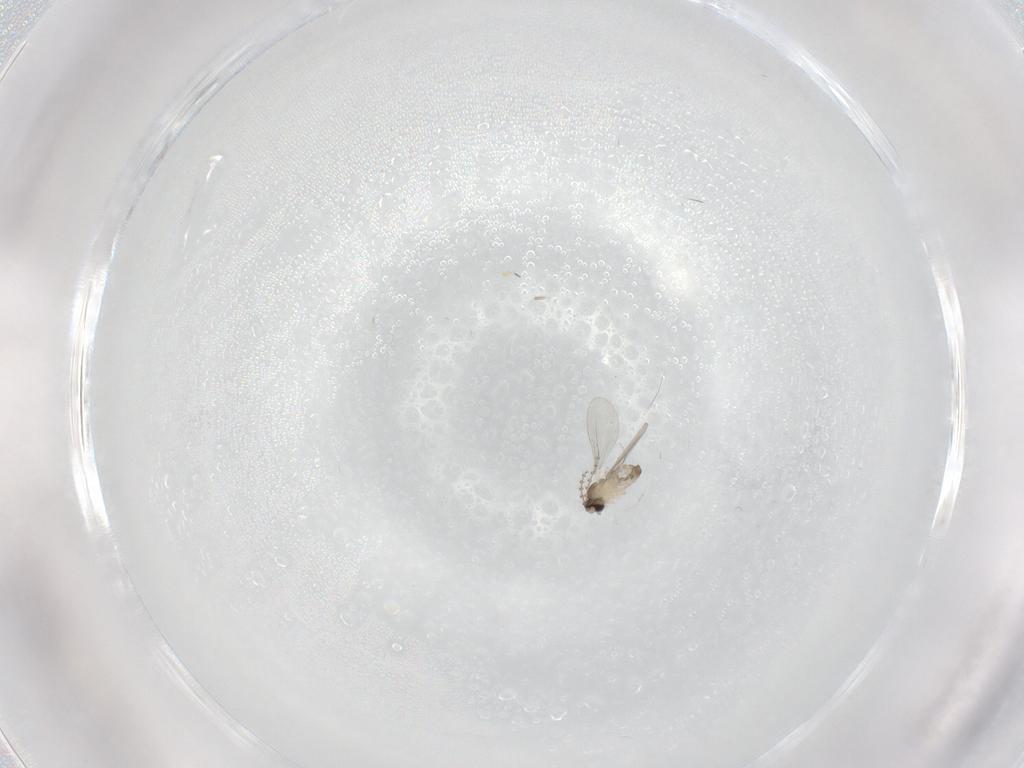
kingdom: Animalia
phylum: Arthropoda
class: Insecta
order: Diptera
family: Cecidomyiidae
